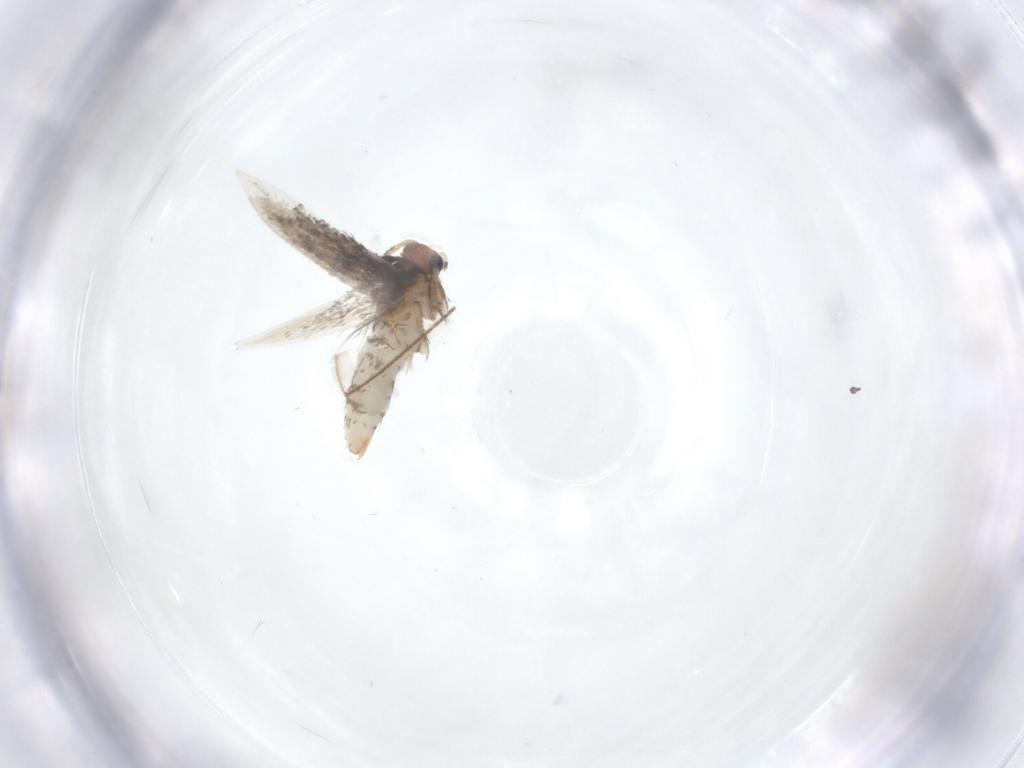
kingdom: Animalia
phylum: Arthropoda
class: Insecta
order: Lepidoptera
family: Nepticulidae
